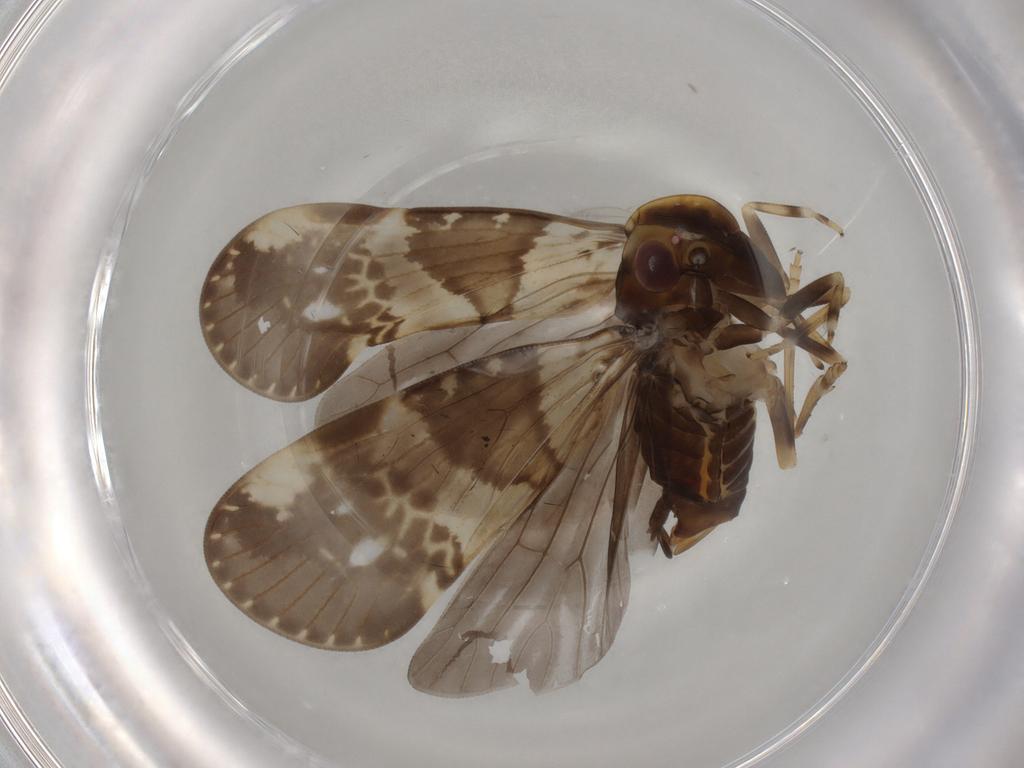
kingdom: Animalia
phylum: Arthropoda
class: Insecta
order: Hemiptera
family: Cixiidae
